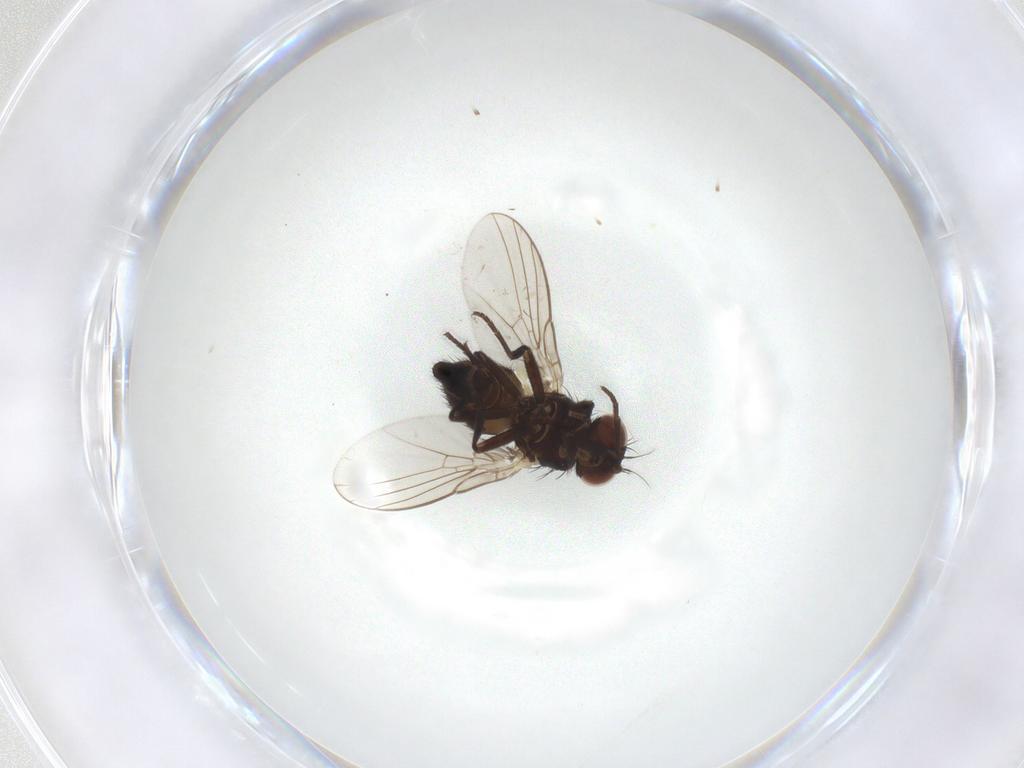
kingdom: Animalia
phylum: Arthropoda
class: Insecta
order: Diptera
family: Agromyzidae
